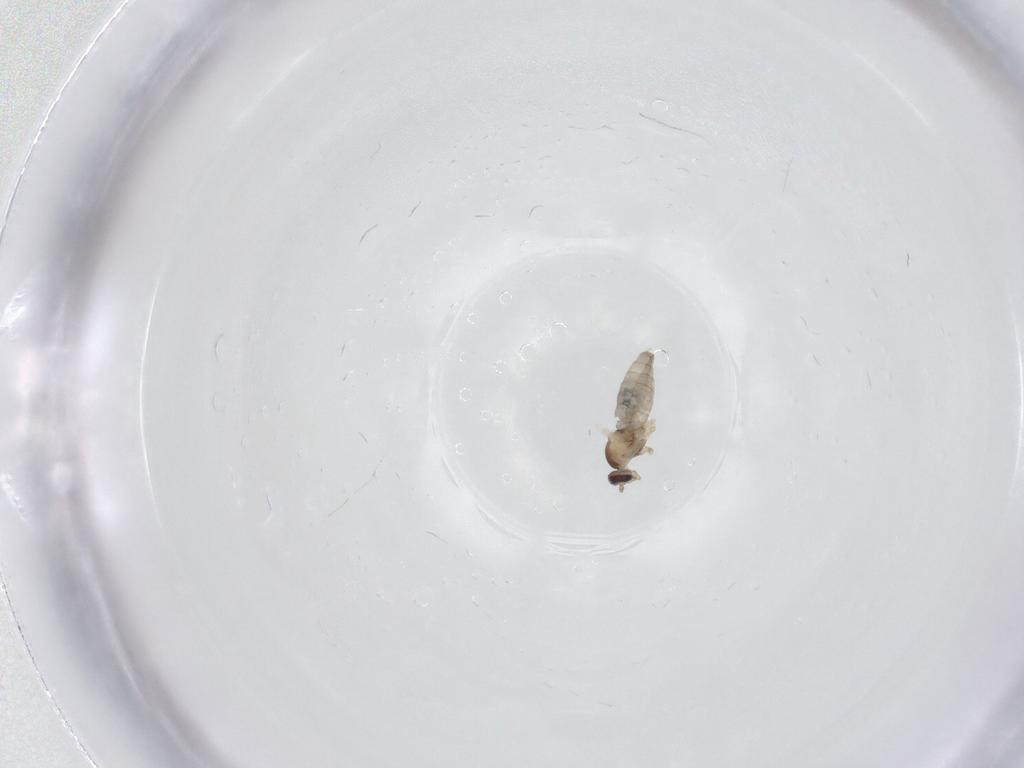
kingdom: Animalia
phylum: Arthropoda
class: Insecta
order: Diptera
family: Cecidomyiidae
